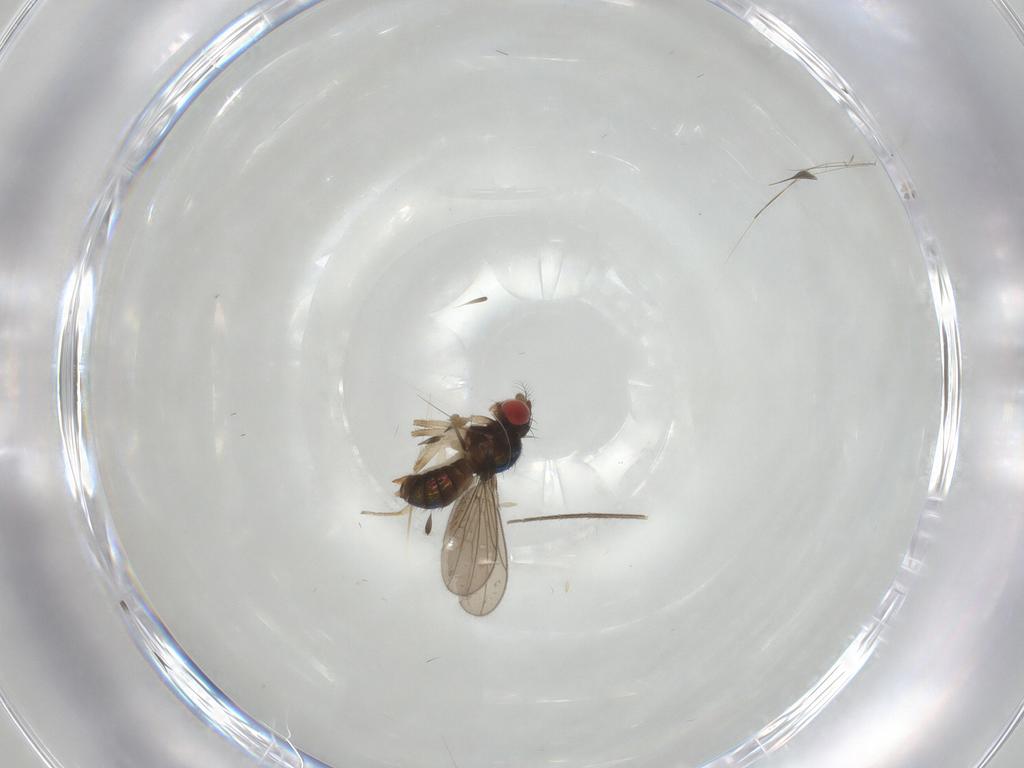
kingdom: Animalia
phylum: Arthropoda
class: Insecta
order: Diptera
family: Drosophilidae
